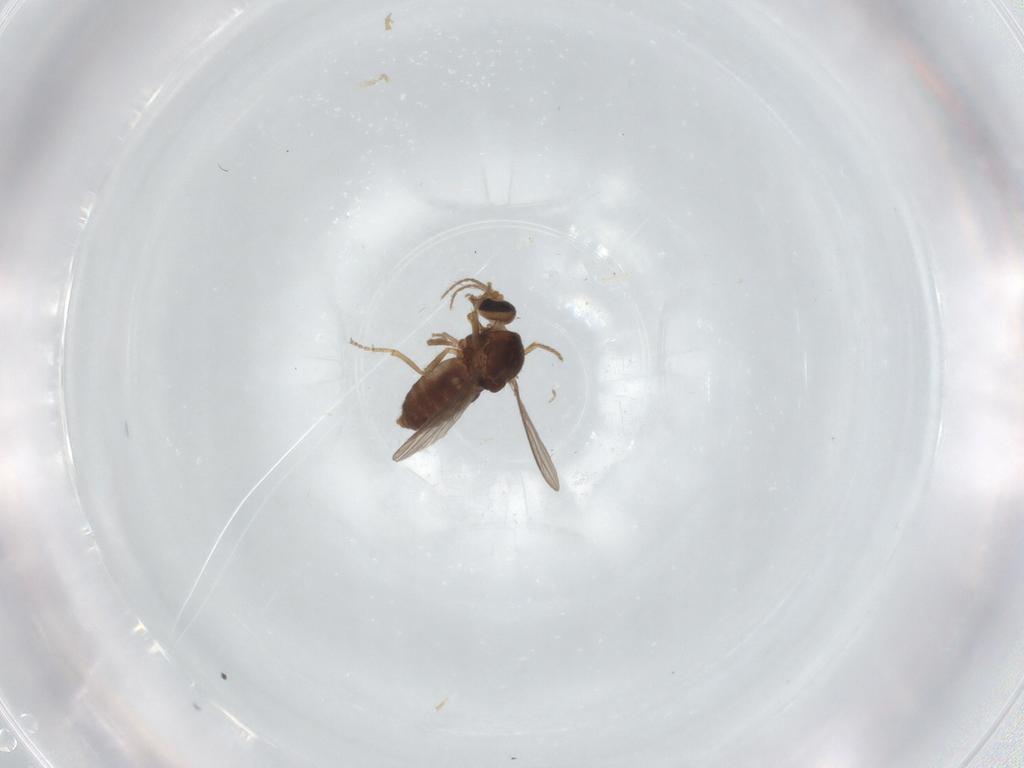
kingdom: Animalia
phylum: Arthropoda
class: Insecta
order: Diptera
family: Ceratopogonidae
